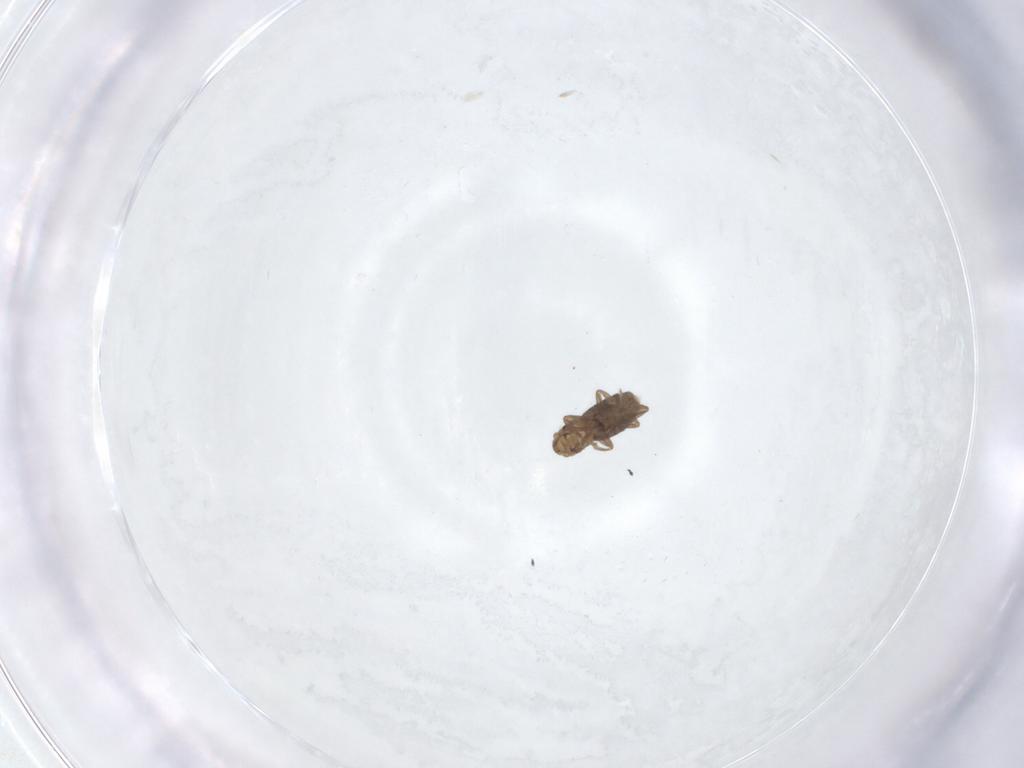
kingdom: Animalia
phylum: Arthropoda
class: Insecta
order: Diptera
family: Phoridae
